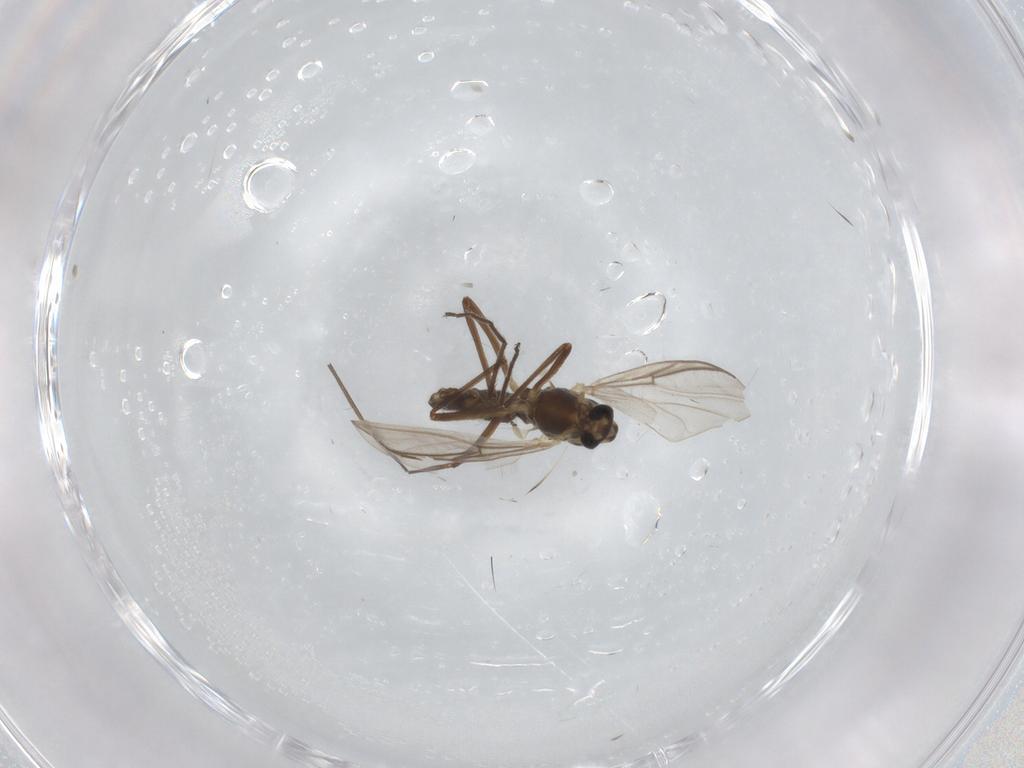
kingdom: Animalia
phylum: Arthropoda
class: Insecta
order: Diptera
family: Chironomidae
